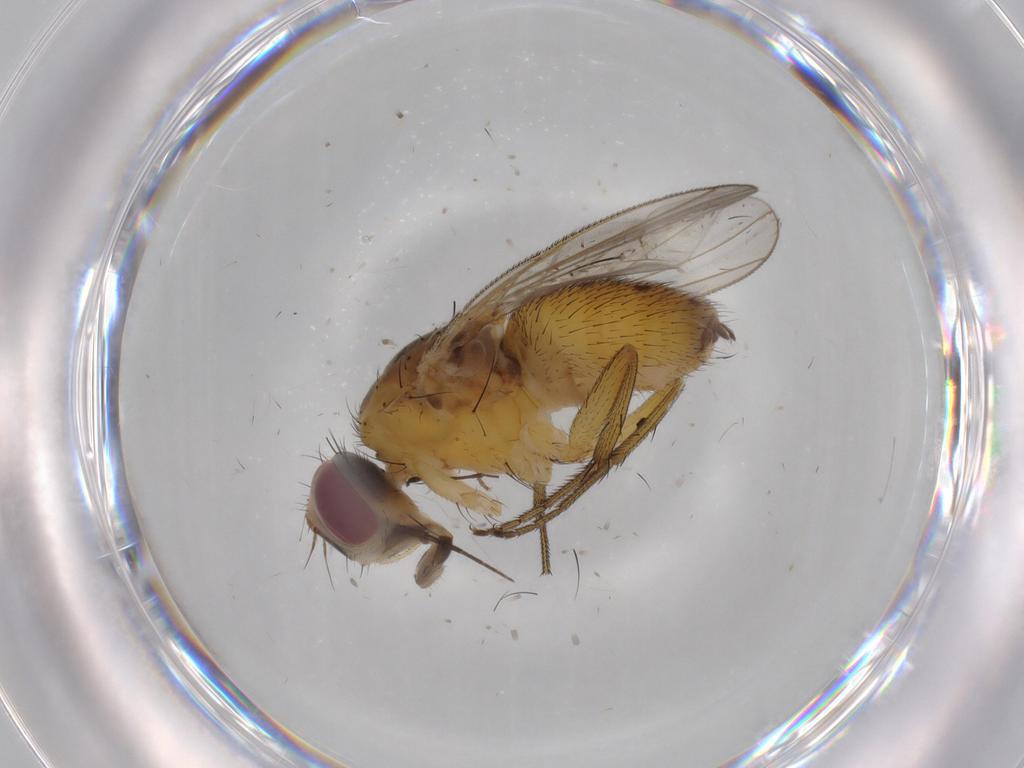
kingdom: Animalia
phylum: Arthropoda
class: Insecta
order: Diptera
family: Muscidae
